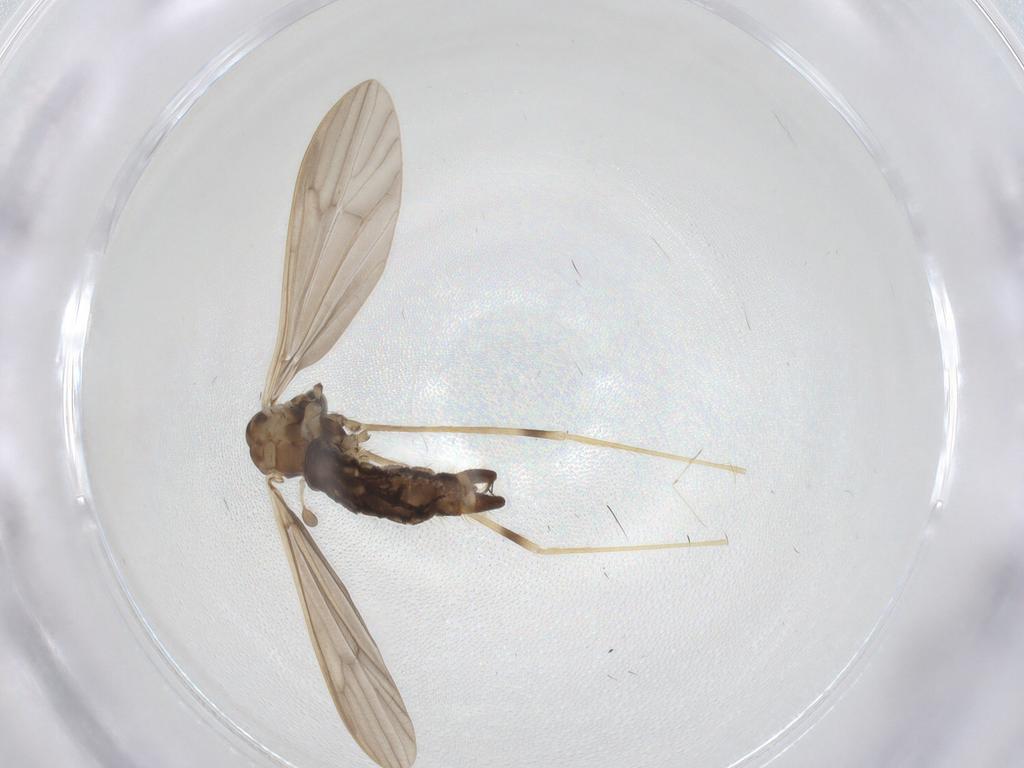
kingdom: Animalia
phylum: Arthropoda
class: Insecta
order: Diptera
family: Limoniidae
